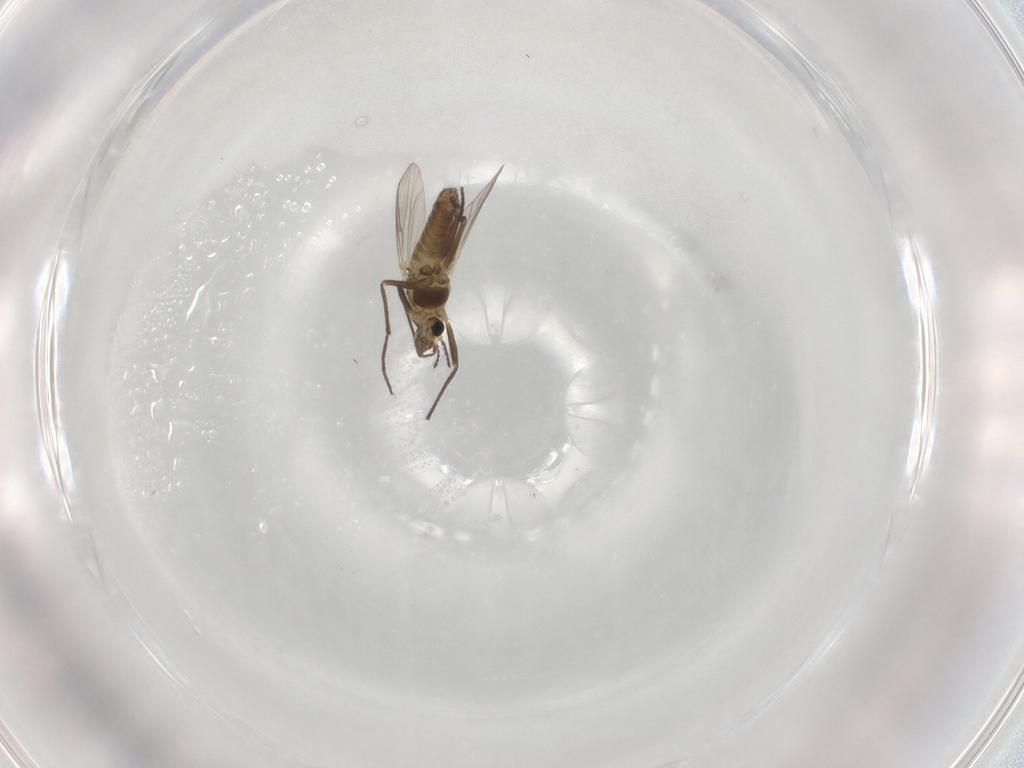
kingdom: Animalia
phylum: Arthropoda
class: Insecta
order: Diptera
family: Chironomidae
